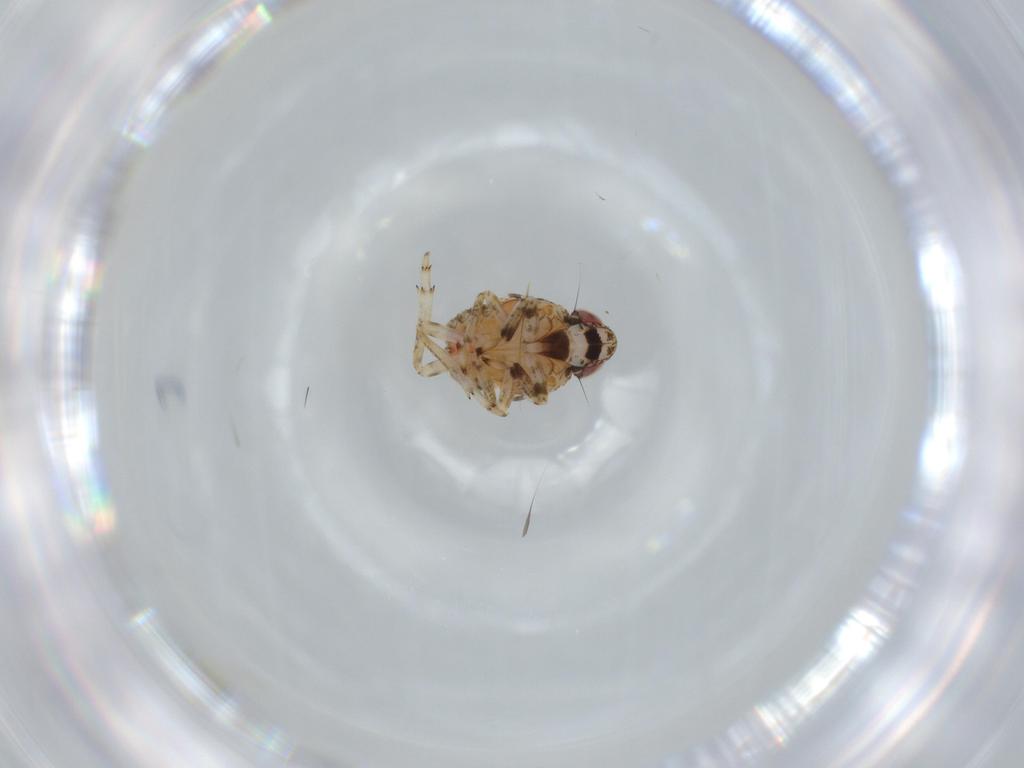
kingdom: Animalia
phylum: Arthropoda
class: Insecta
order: Hemiptera
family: Issidae
